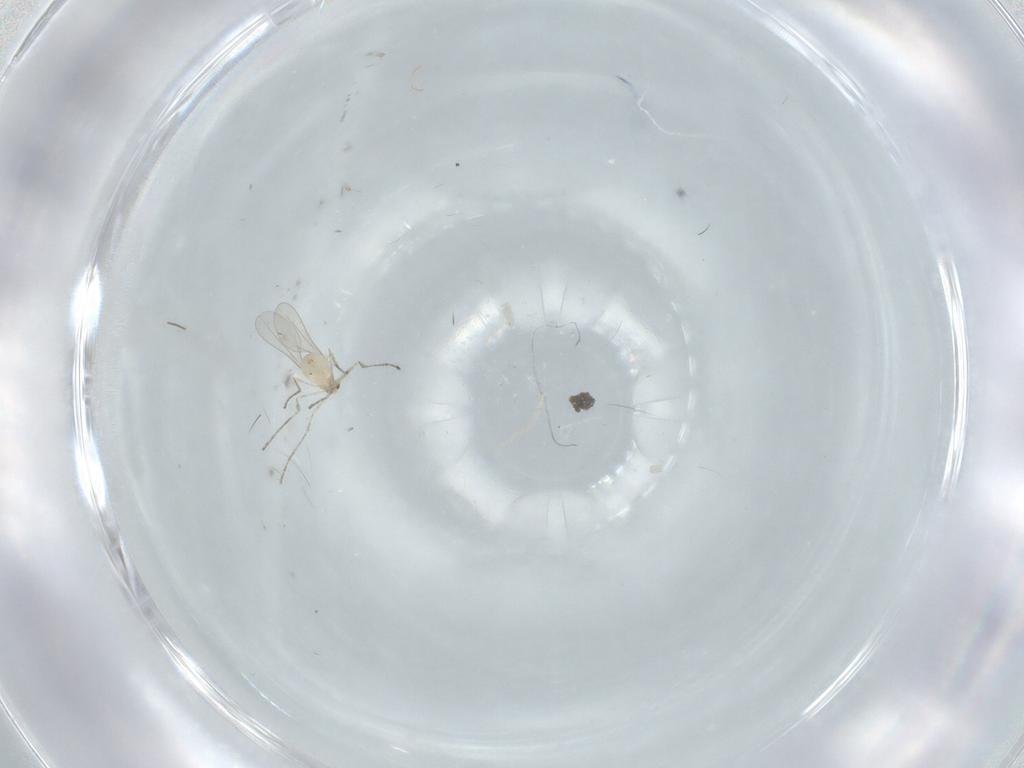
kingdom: Animalia
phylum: Arthropoda
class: Insecta
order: Diptera
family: Cecidomyiidae
